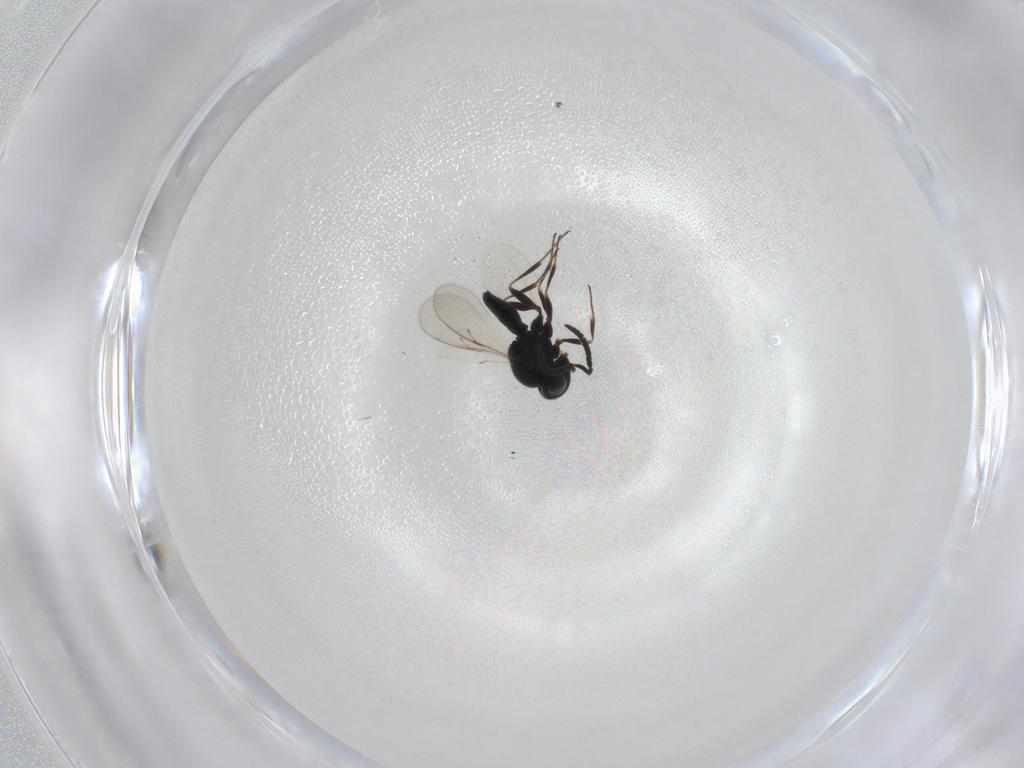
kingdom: Animalia
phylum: Arthropoda
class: Insecta
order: Hymenoptera
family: Scelionidae
